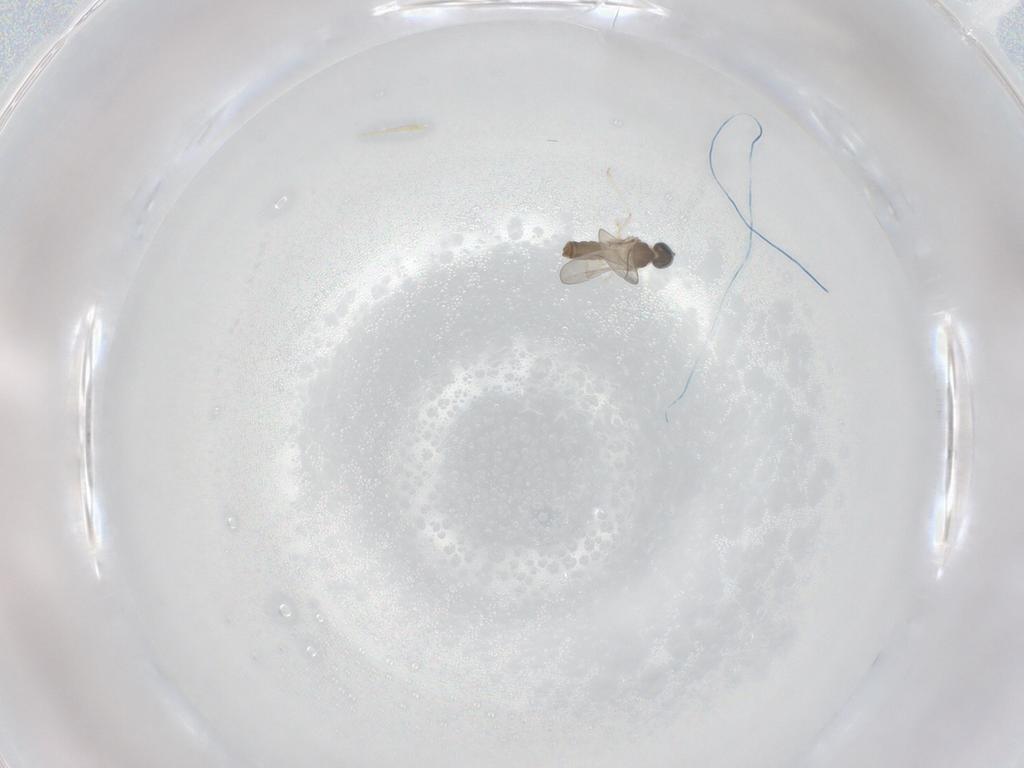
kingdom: Animalia
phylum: Arthropoda
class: Insecta
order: Diptera
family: Cecidomyiidae
